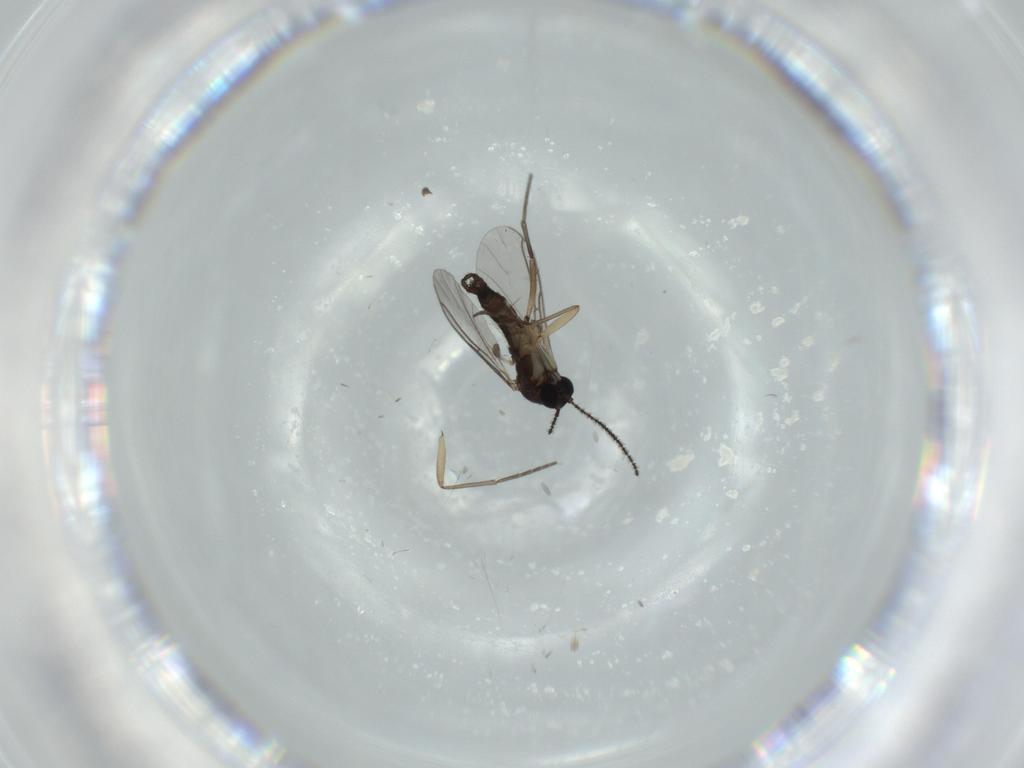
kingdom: Animalia
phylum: Arthropoda
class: Insecta
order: Diptera
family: Sciaridae
